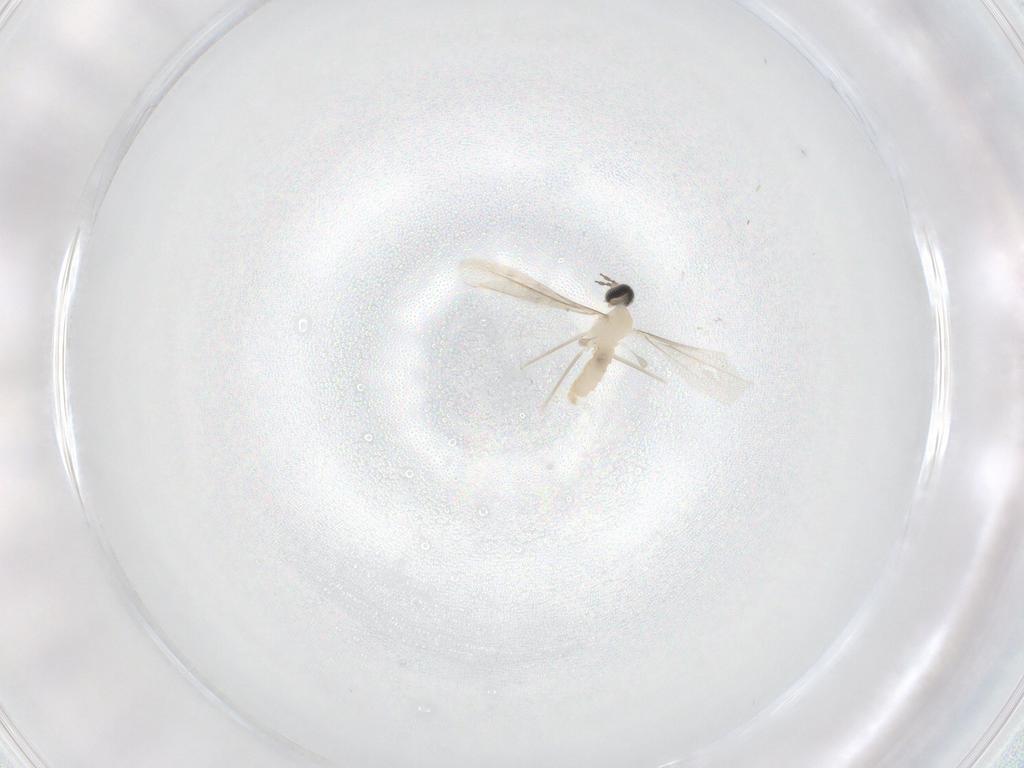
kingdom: Animalia
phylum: Arthropoda
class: Insecta
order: Diptera
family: Cecidomyiidae
